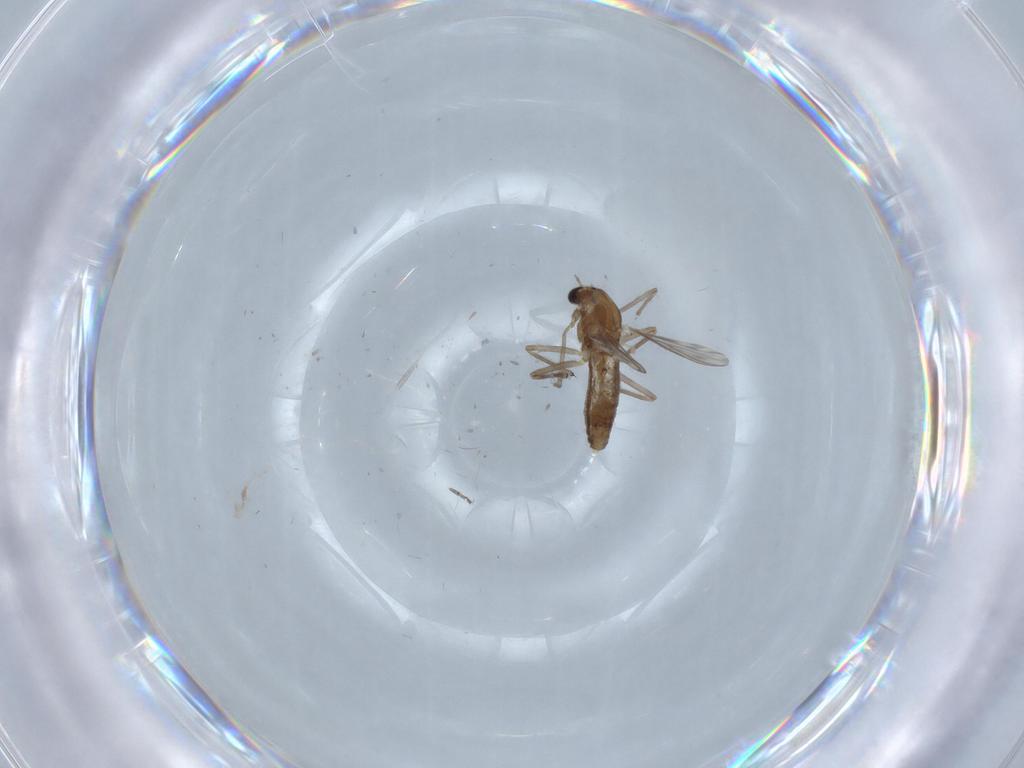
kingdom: Animalia
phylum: Arthropoda
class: Insecta
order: Diptera
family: Chironomidae
